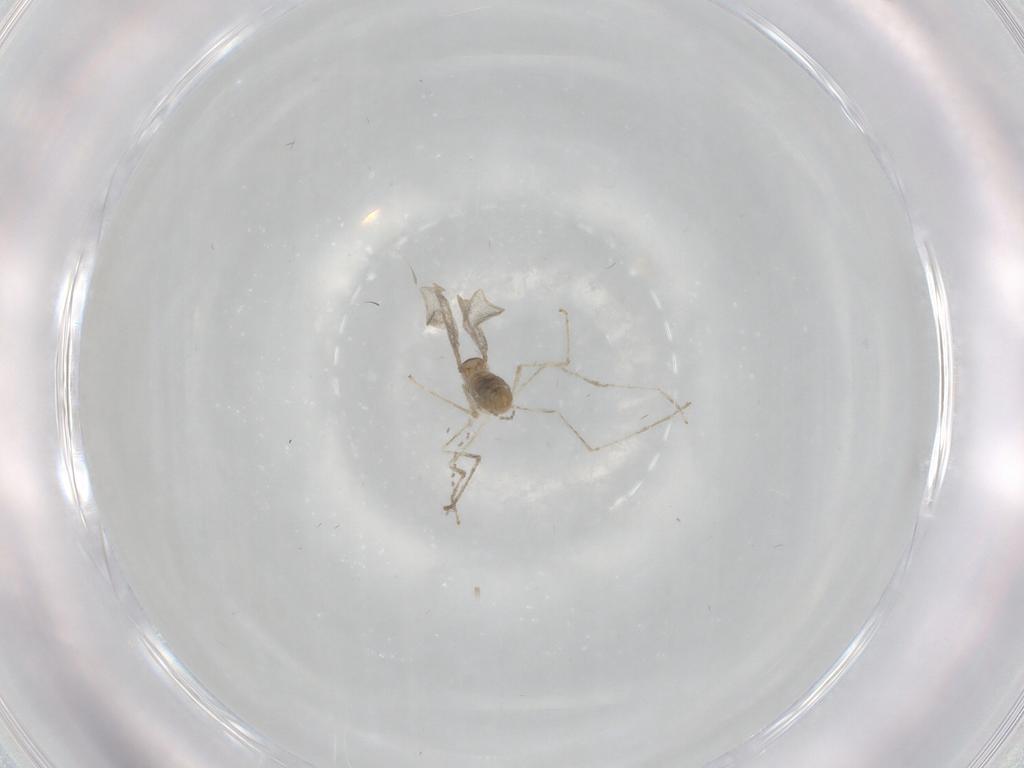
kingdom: Animalia
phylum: Arthropoda
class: Insecta
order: Diptera
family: Cecidomyiidae
